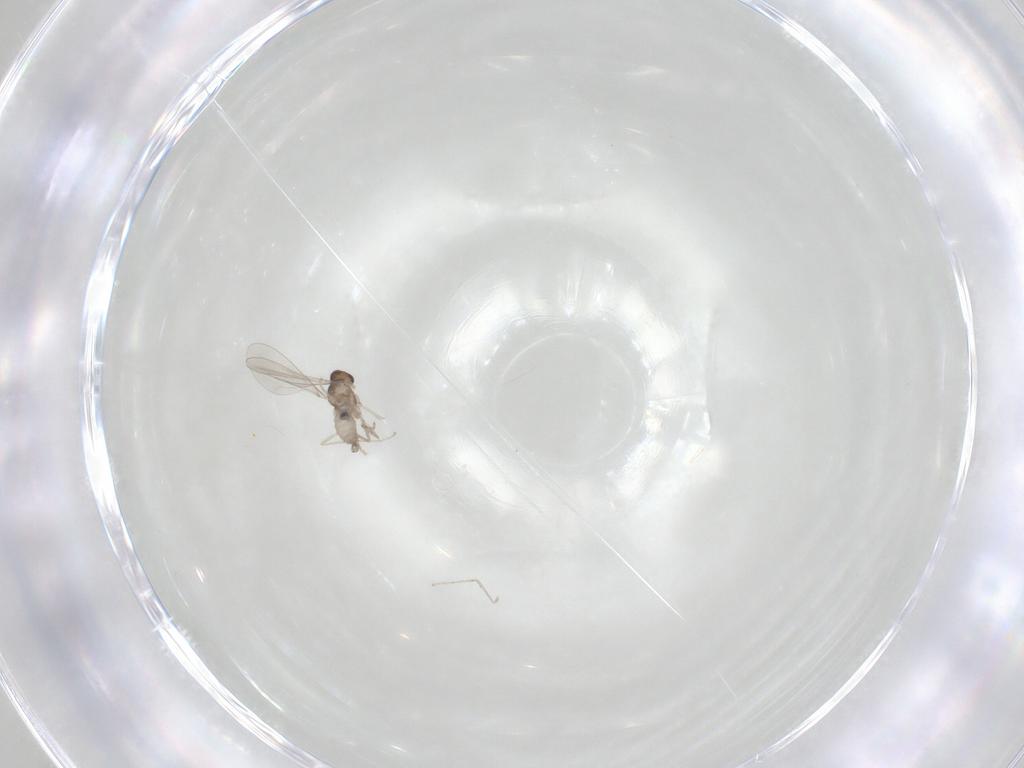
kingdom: Animalia
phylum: Arthropoda
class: Insecta
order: Diptera
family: Cecidomyiidae
